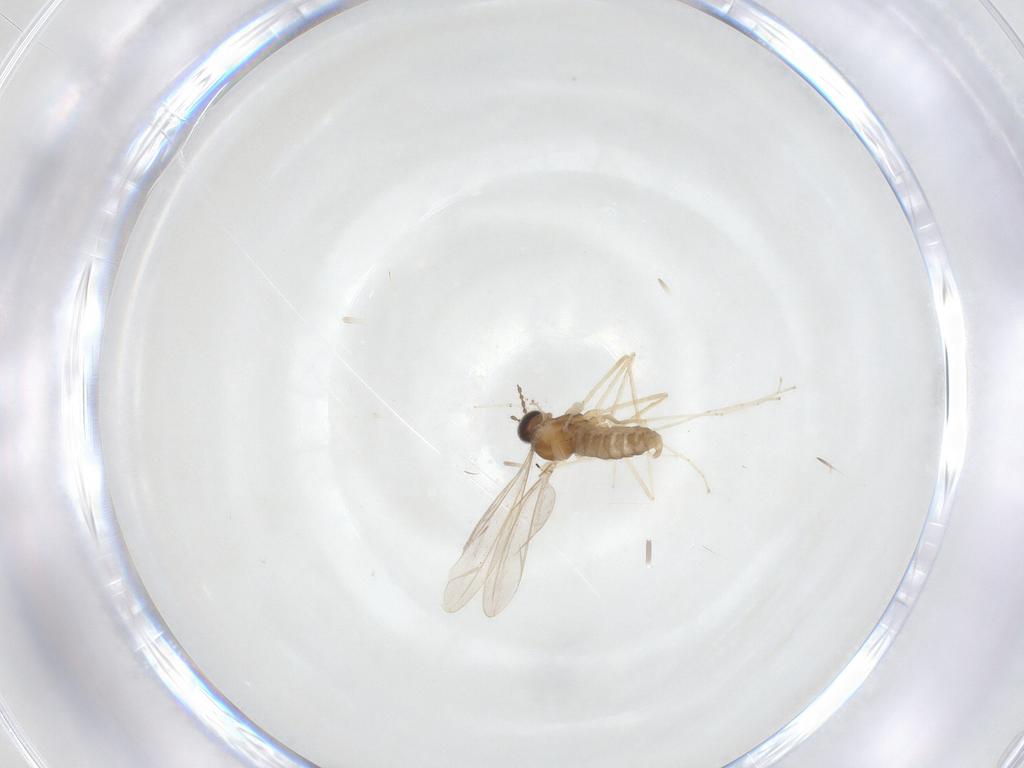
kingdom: Animalia
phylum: Arthropoda
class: Insecta
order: Diptera
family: Cecidomyiidae
